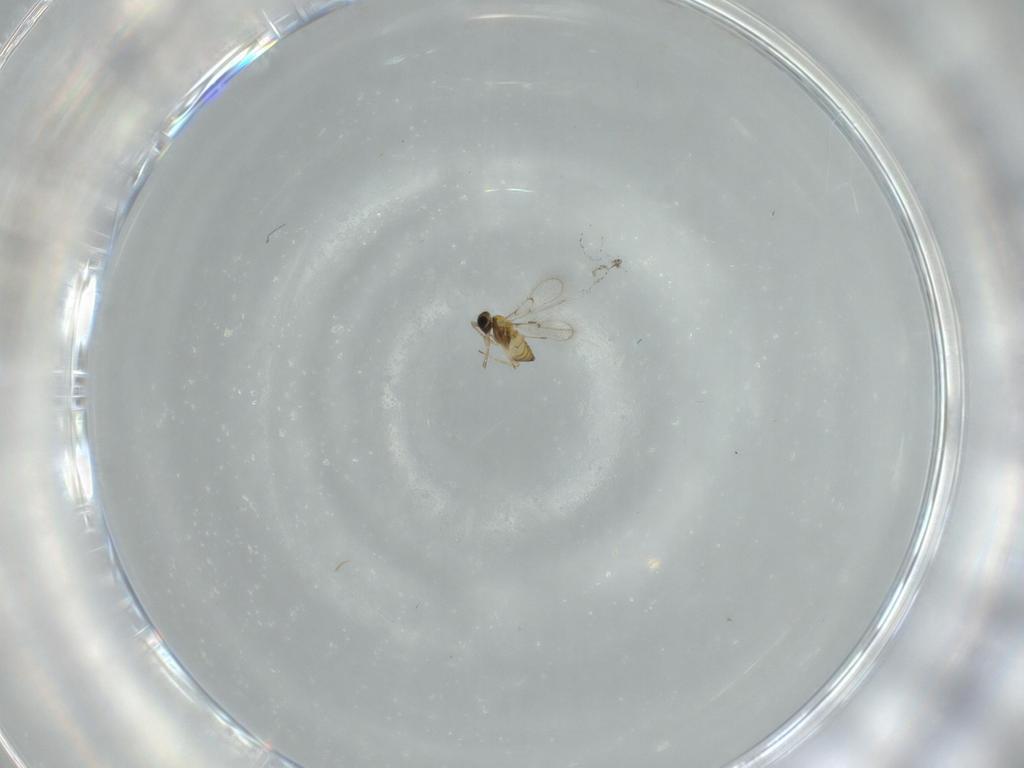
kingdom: Animalia
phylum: Arthropoda
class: Insecta
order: Hymenoptera
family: Trichogrammatidae
